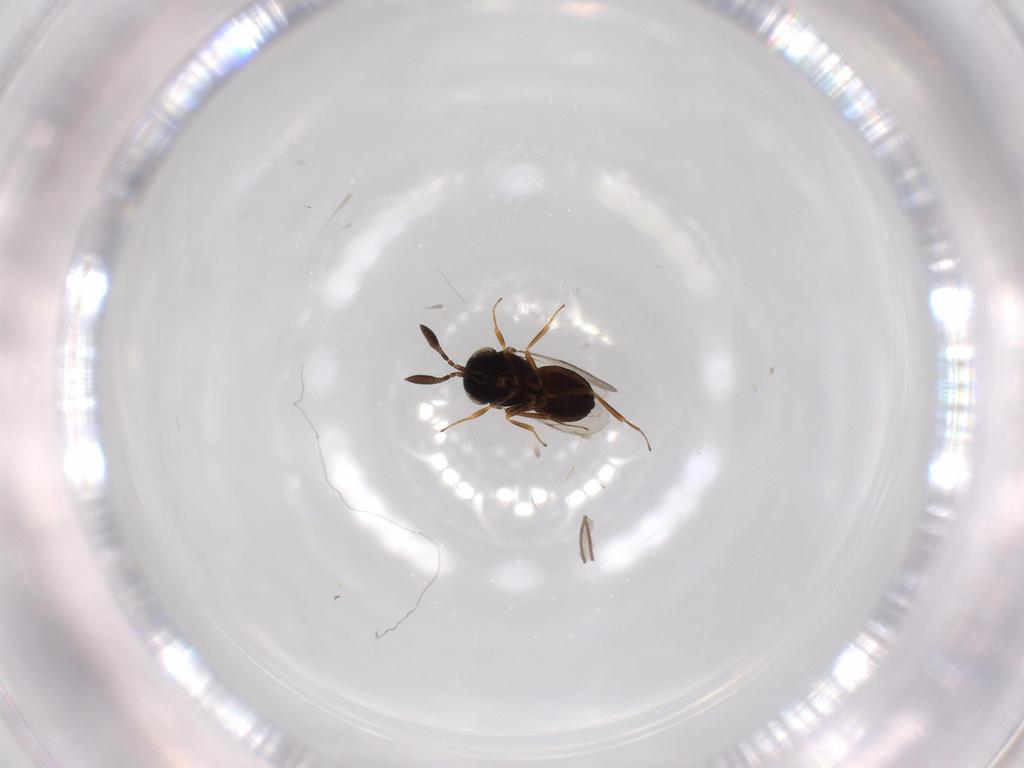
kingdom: Animalia
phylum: Arthropoda
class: Insecta
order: Coleoptera
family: Curculionidae
